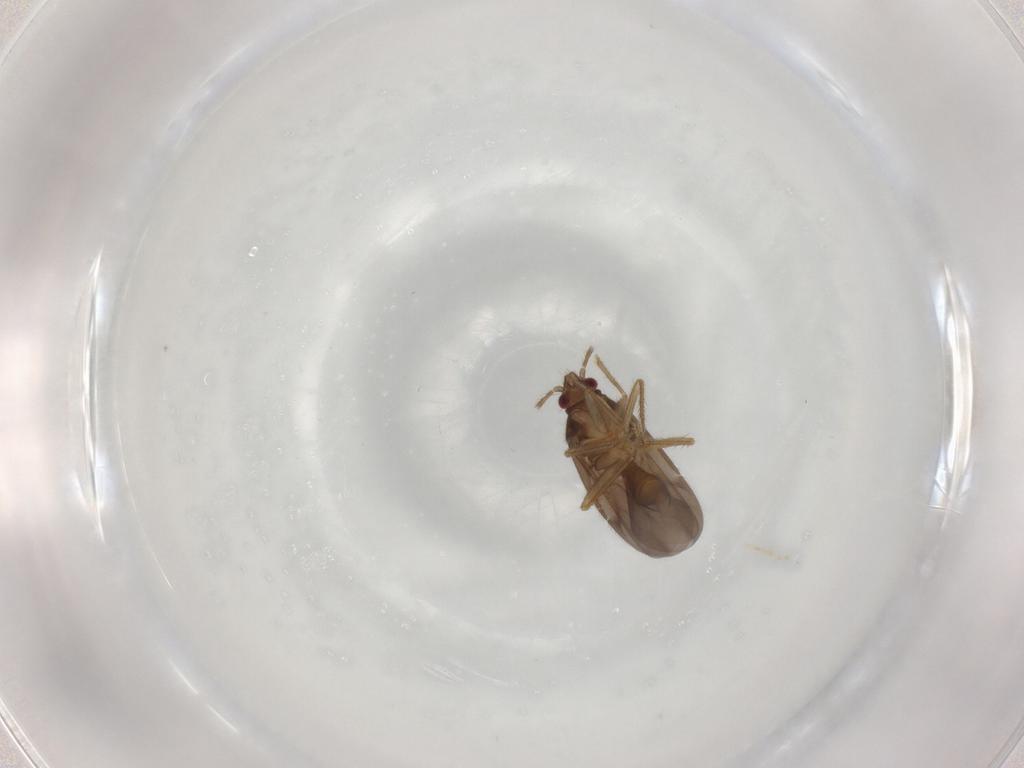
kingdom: Animalia
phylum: Arthropoda
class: Insecta
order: Hemiptera
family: Ceratocombidae
